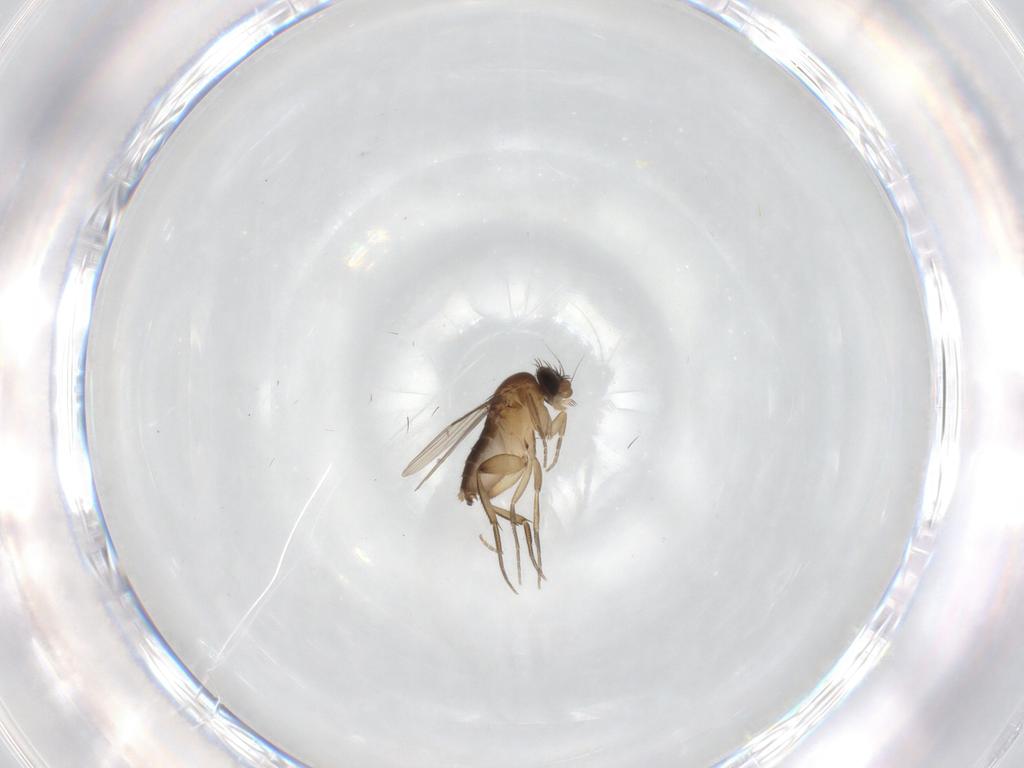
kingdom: Animalia
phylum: Arthropoda
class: Insecta
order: Diptera
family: Phoridae
